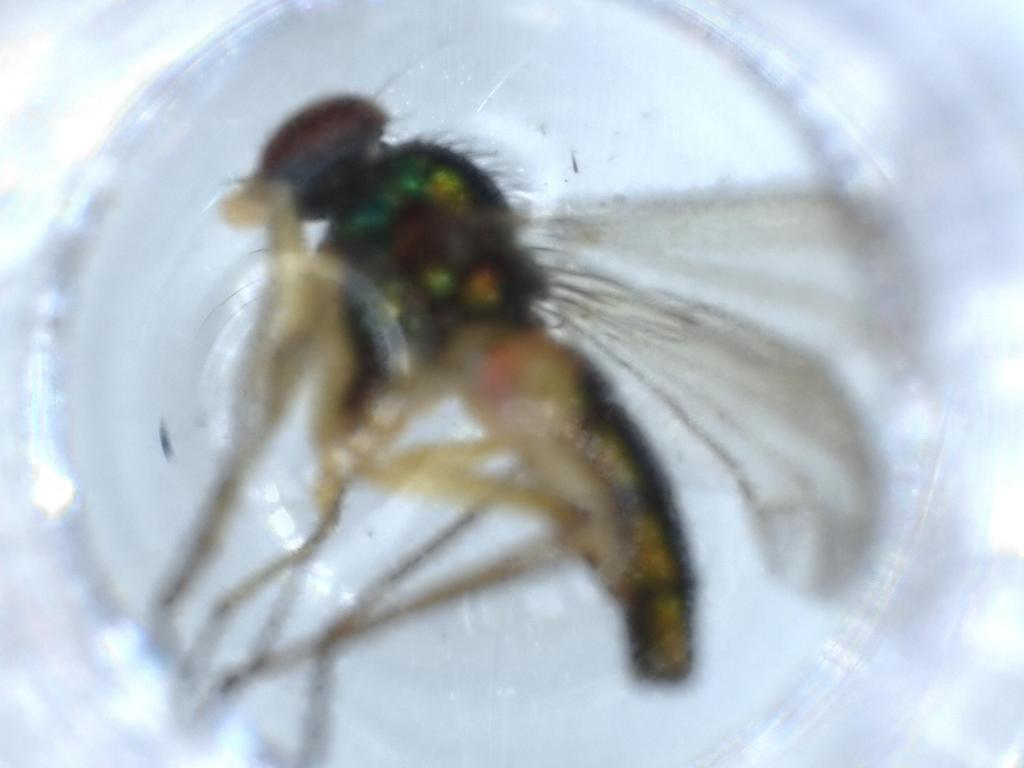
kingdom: Animalia
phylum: Arthropoda
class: Insecta
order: Diptera
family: Dolichopodidae
